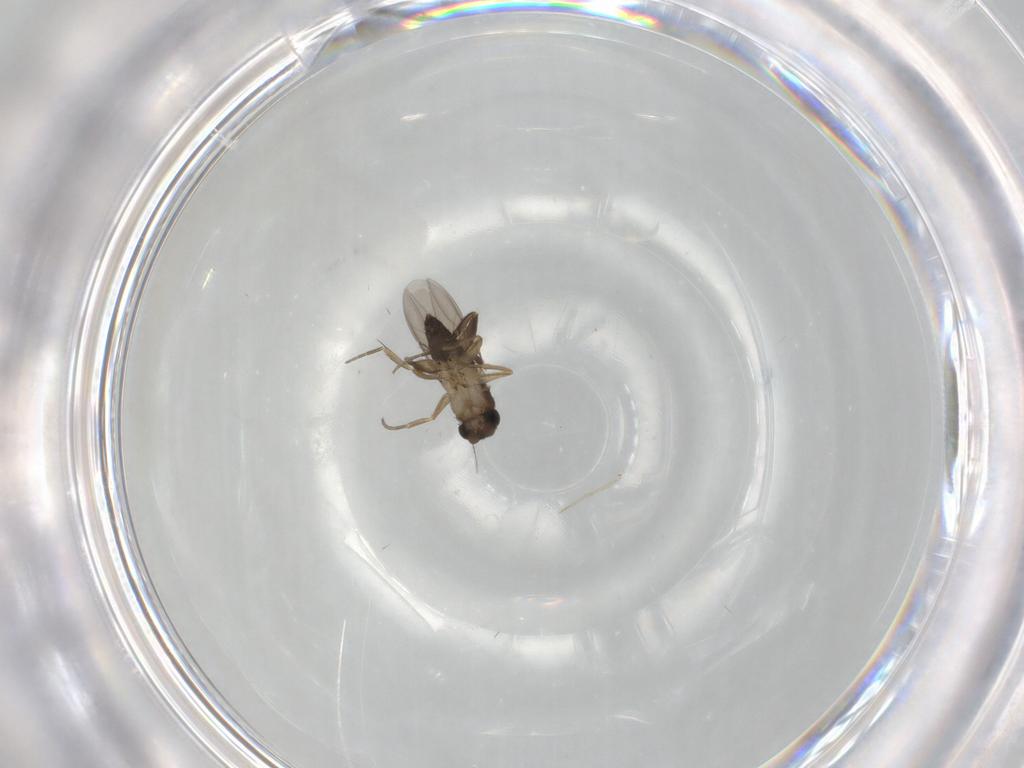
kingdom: Animalia
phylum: Arthropoda
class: Insecta
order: Diptera
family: Phoridae
